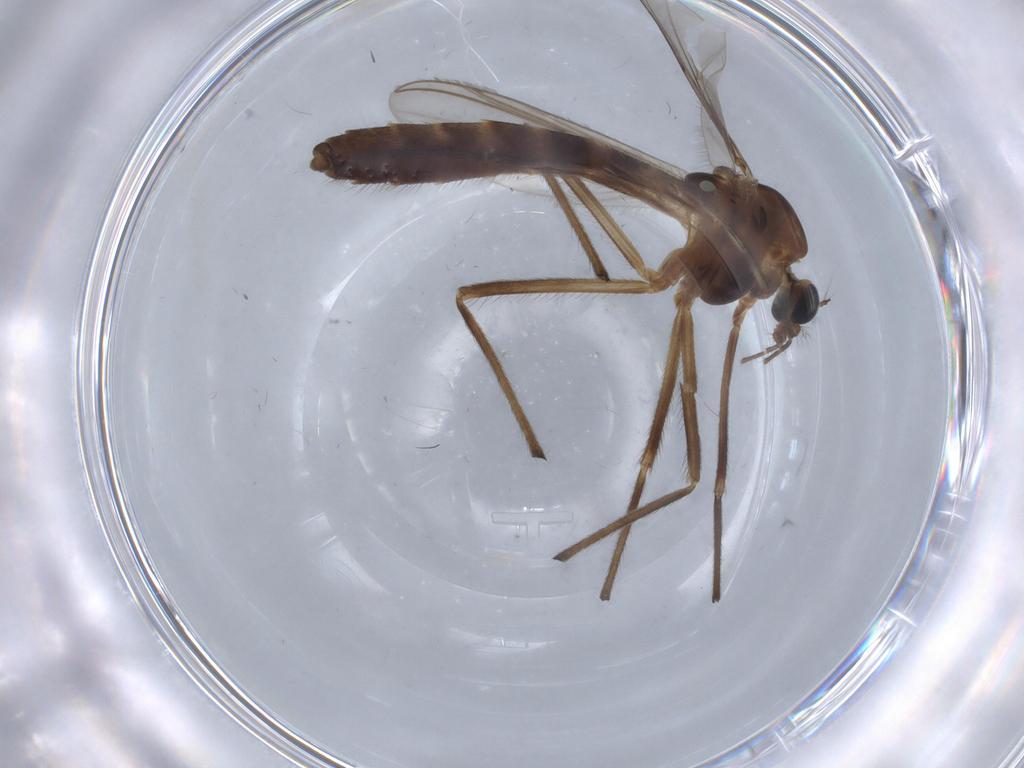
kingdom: Animalia
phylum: Arthropoda
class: Insecta
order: Diptera
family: Chironomidae
